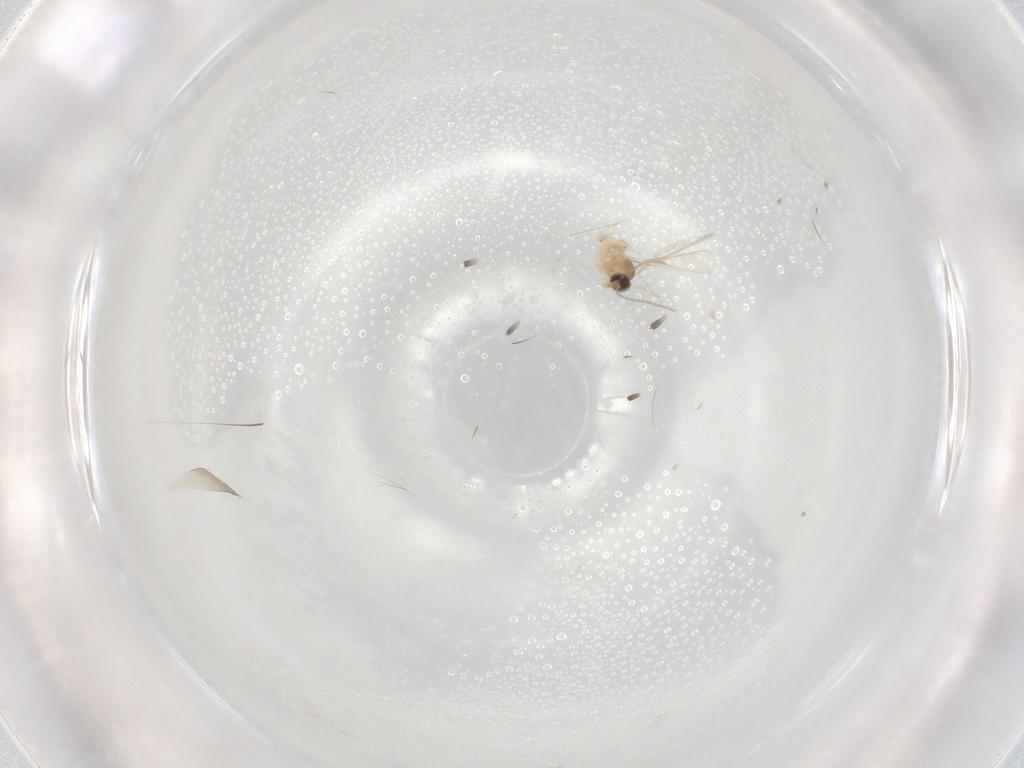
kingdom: Animalia
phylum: Arthropoda
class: Insecta
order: Diptera
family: Cecidomyiidae
